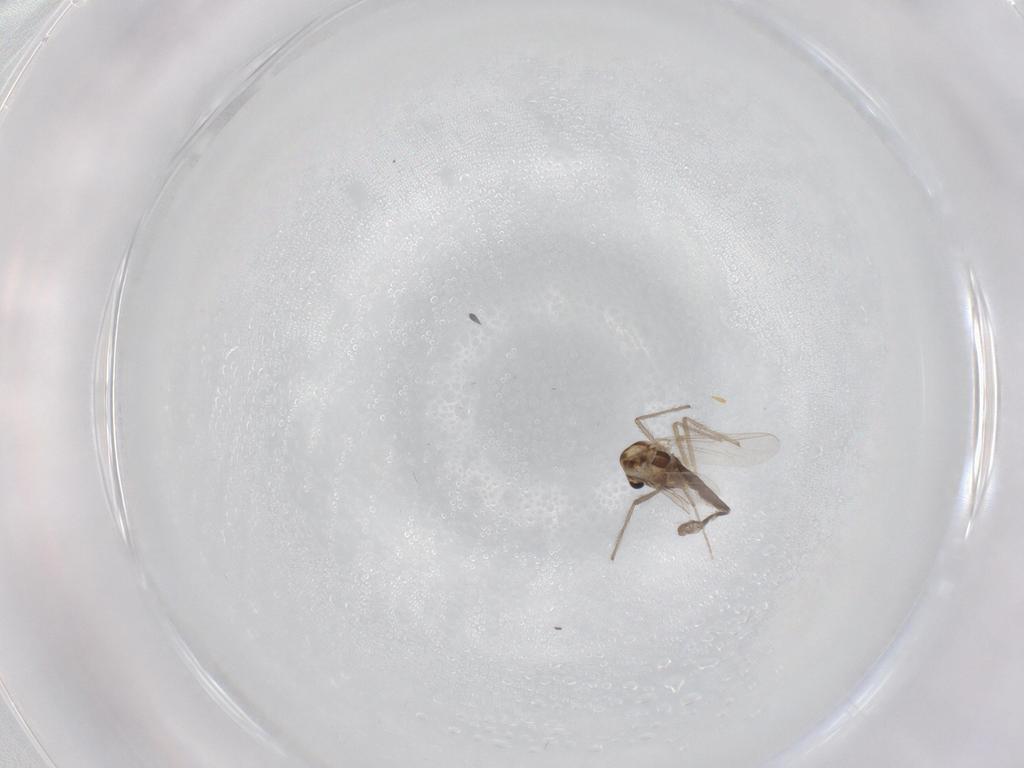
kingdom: Animalia
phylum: Arthropoda
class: Insecta
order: Diptera
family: Chironomidae
